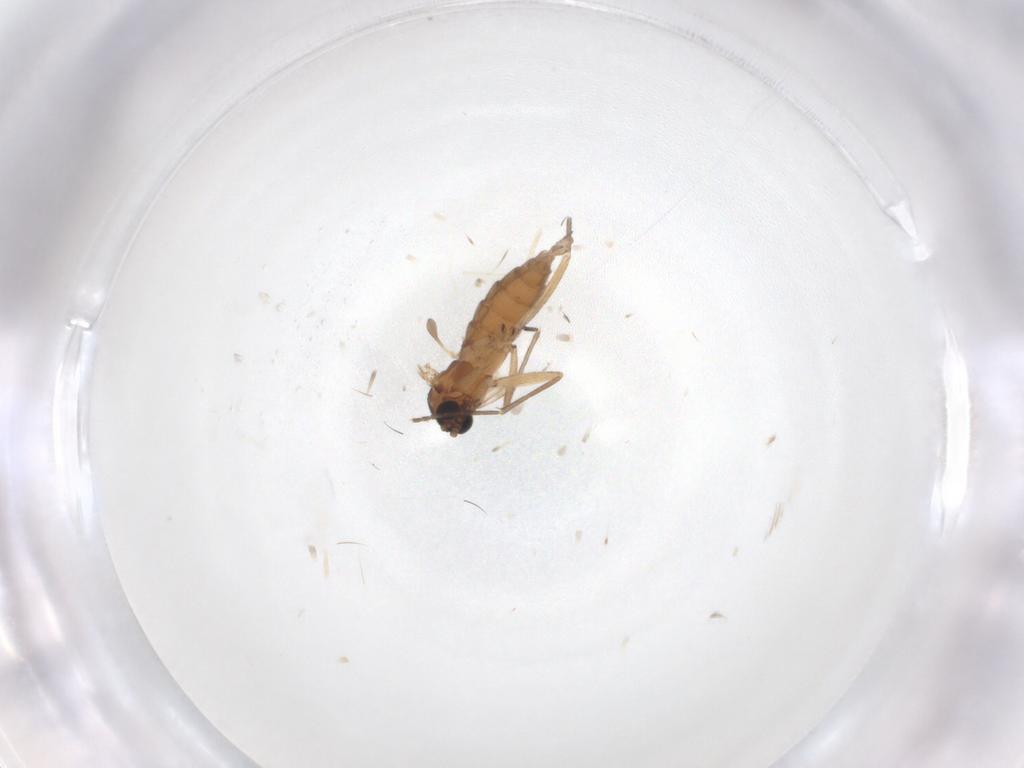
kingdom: Animalia
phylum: Arthropoda
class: Insecta
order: Diptera
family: Sciaridae
